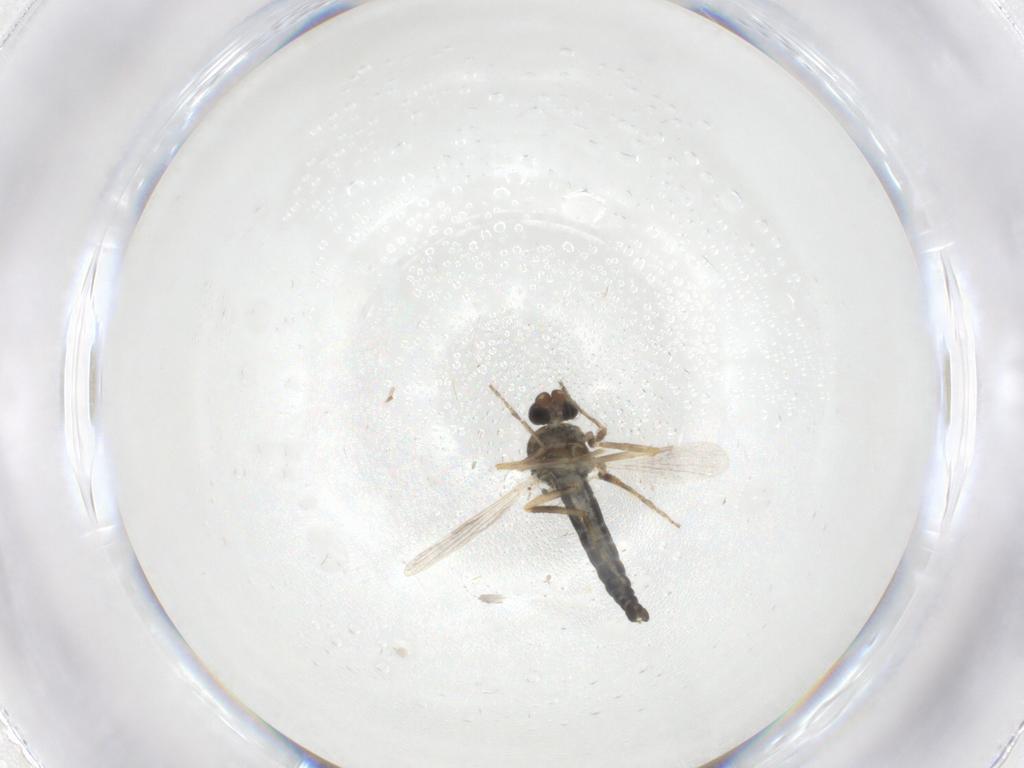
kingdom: Animalia
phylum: Arthropoda
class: Insecta
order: Diptera
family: Ceratopogonidae
